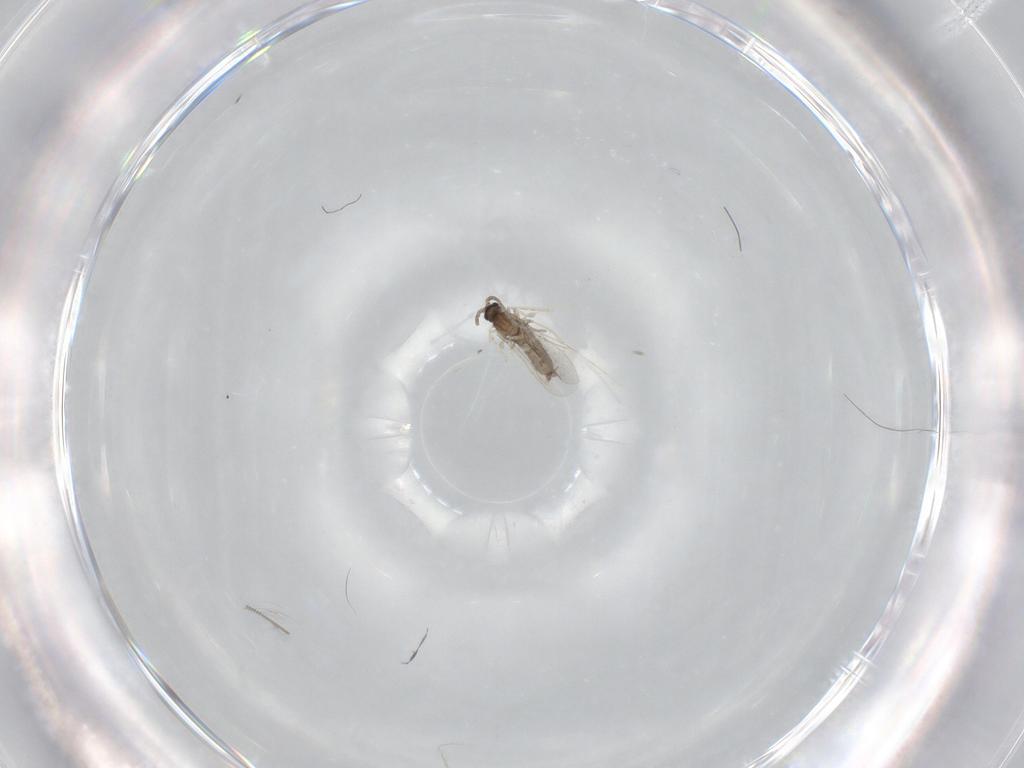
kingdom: Animalia
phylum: Arthropoda
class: Insecta
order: Diptera
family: Cecidomyiidae
